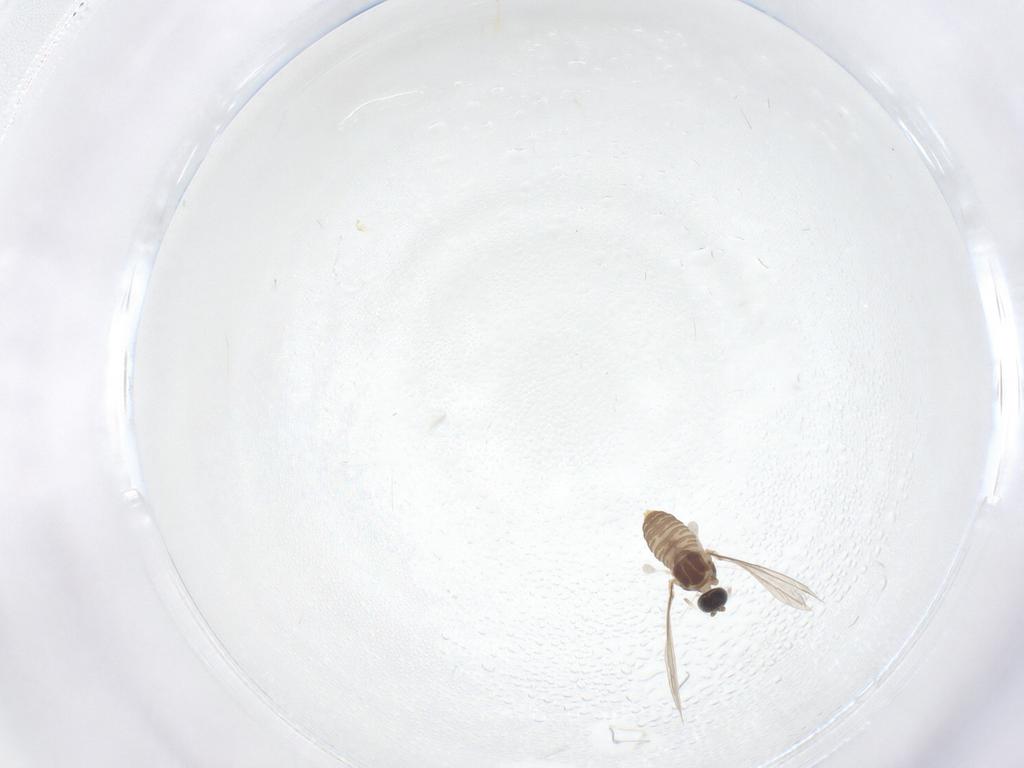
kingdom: Animalia
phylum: Arthropoda
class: Insecta
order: Diptera
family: Cecidomyiidae
